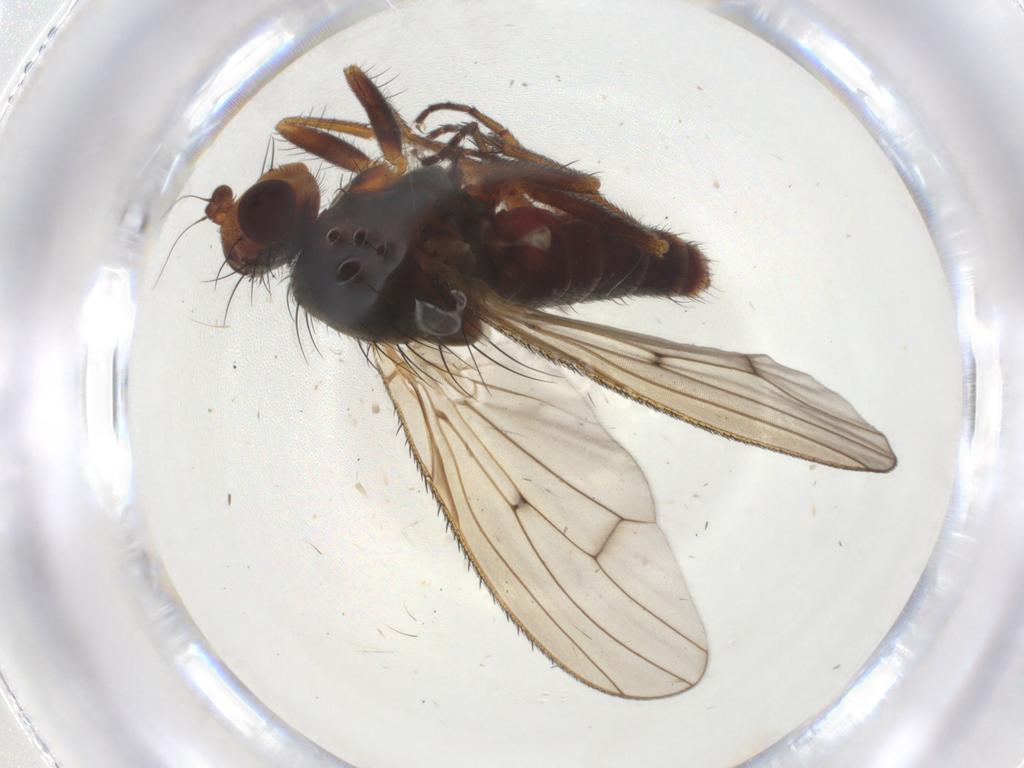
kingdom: Animalia
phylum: Arthropoda
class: Insecta
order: Diptera
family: Heleomyzidae
